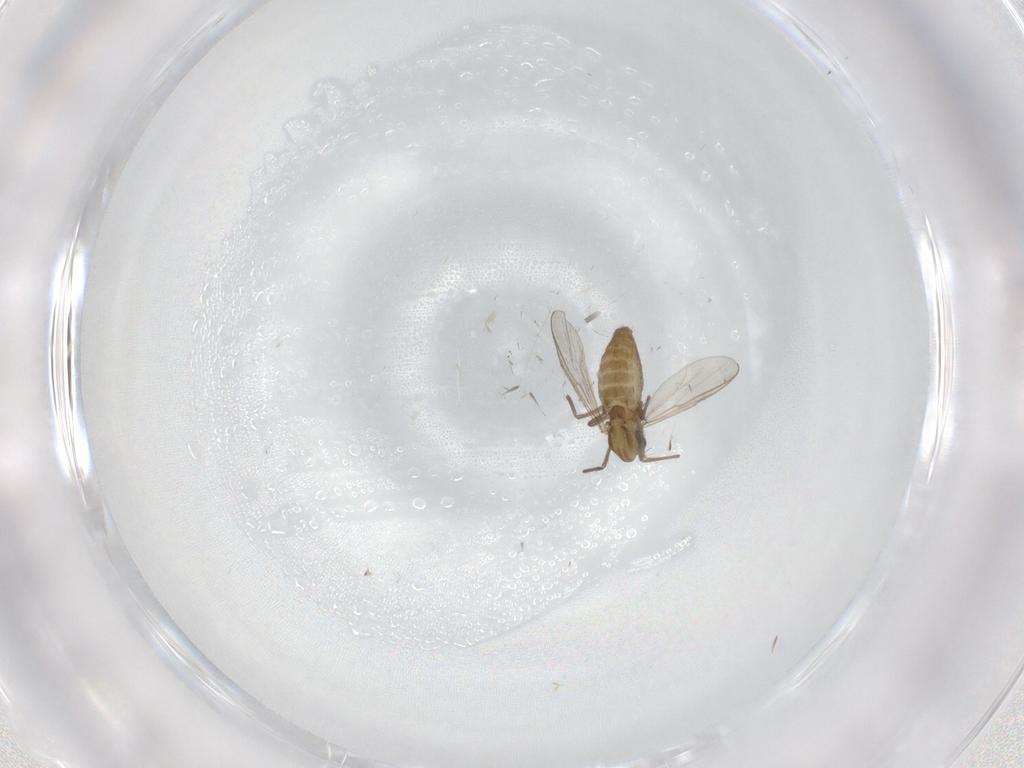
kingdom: Animalia
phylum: Arthropoda
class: Insecta
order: Diptera
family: Chironomidae
